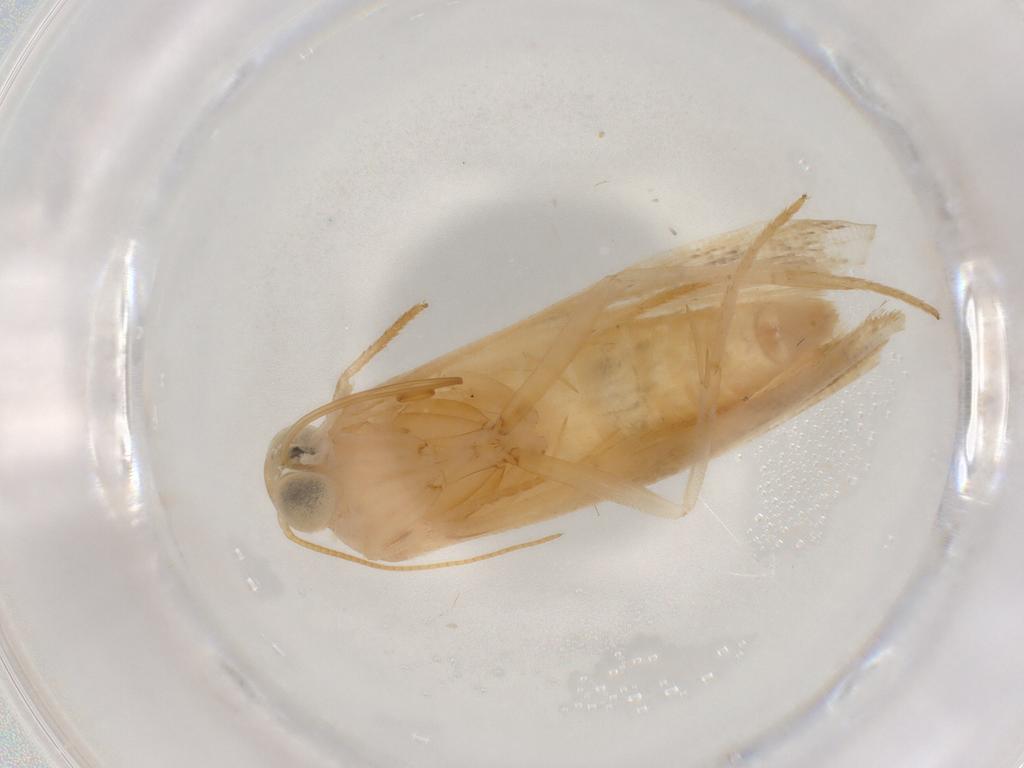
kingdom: Animalia
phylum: Arthropoda
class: Insecta
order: Lepidoptera
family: Noctuidae
